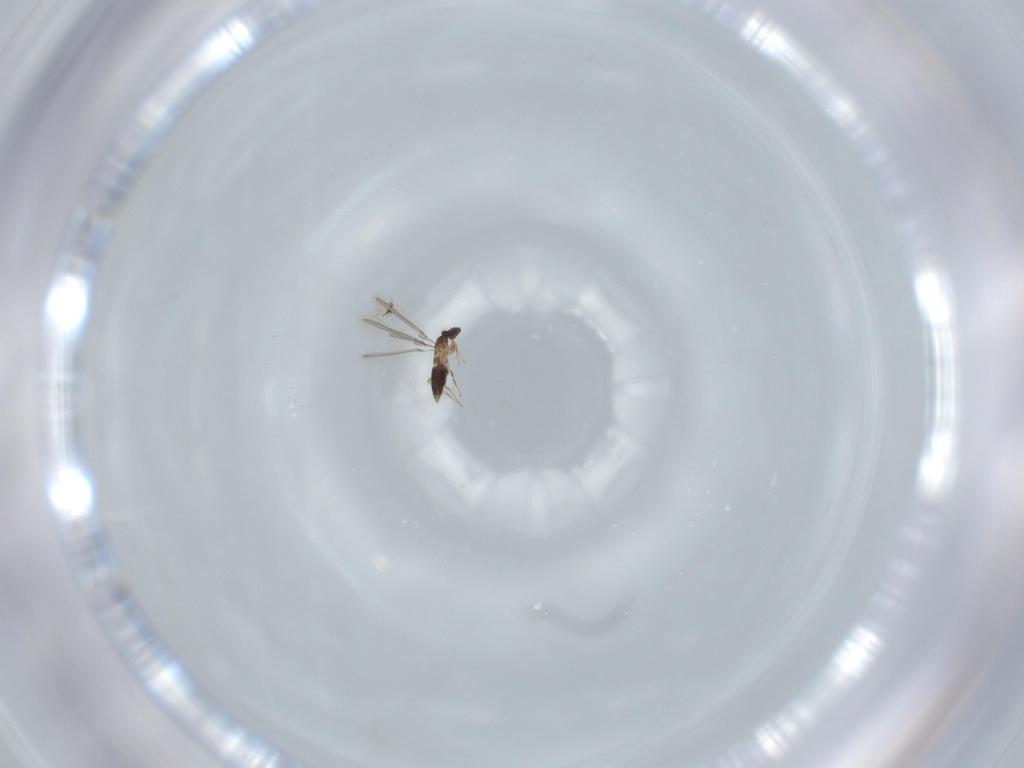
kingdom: Animalia
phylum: Arthropoda
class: Insecta
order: Hymenoptera
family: Mymaridae
